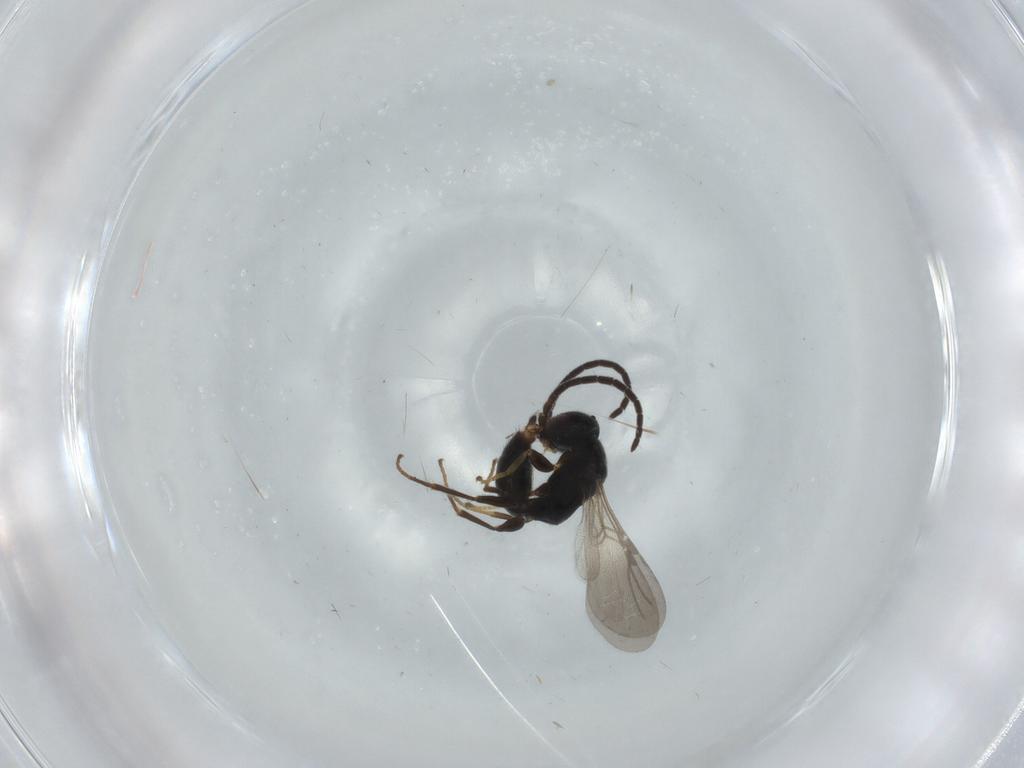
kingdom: Animalia
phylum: Arthropoda
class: Insecta
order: Hymenoptera
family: Bethylidae
